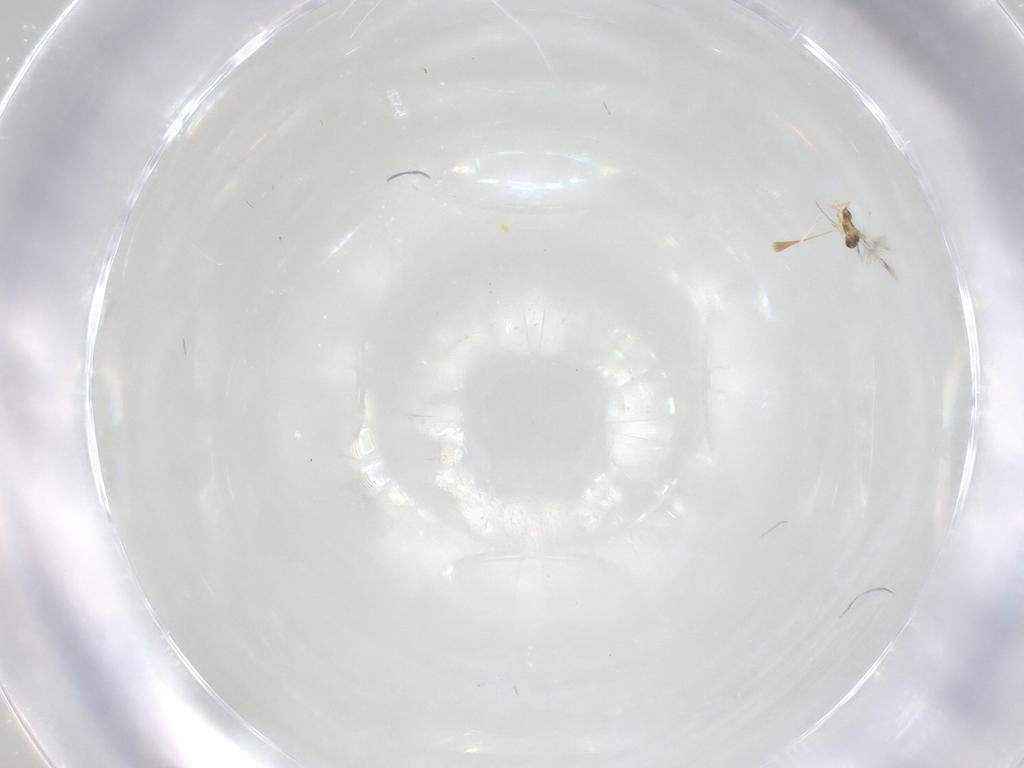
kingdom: Animalia
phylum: Arthropoda
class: Insecta
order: Hymenoptera
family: Mymaridae
